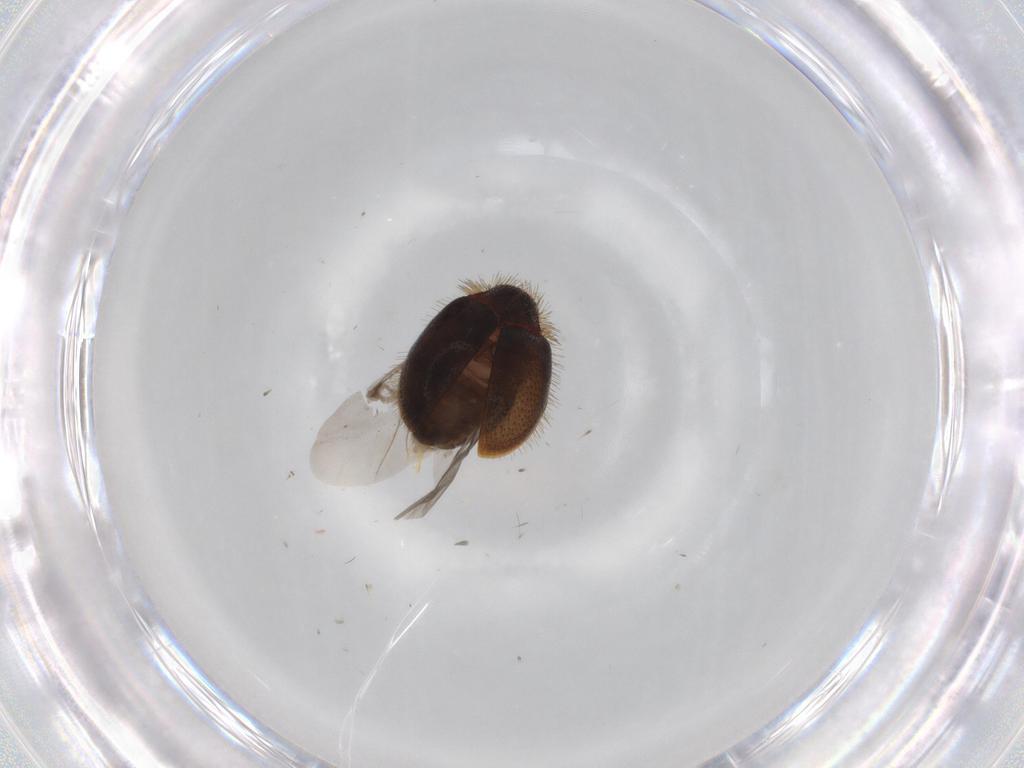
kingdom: Animalia
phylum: Arthropoda
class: Insecta
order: Coleoptera
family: Dermestidae
